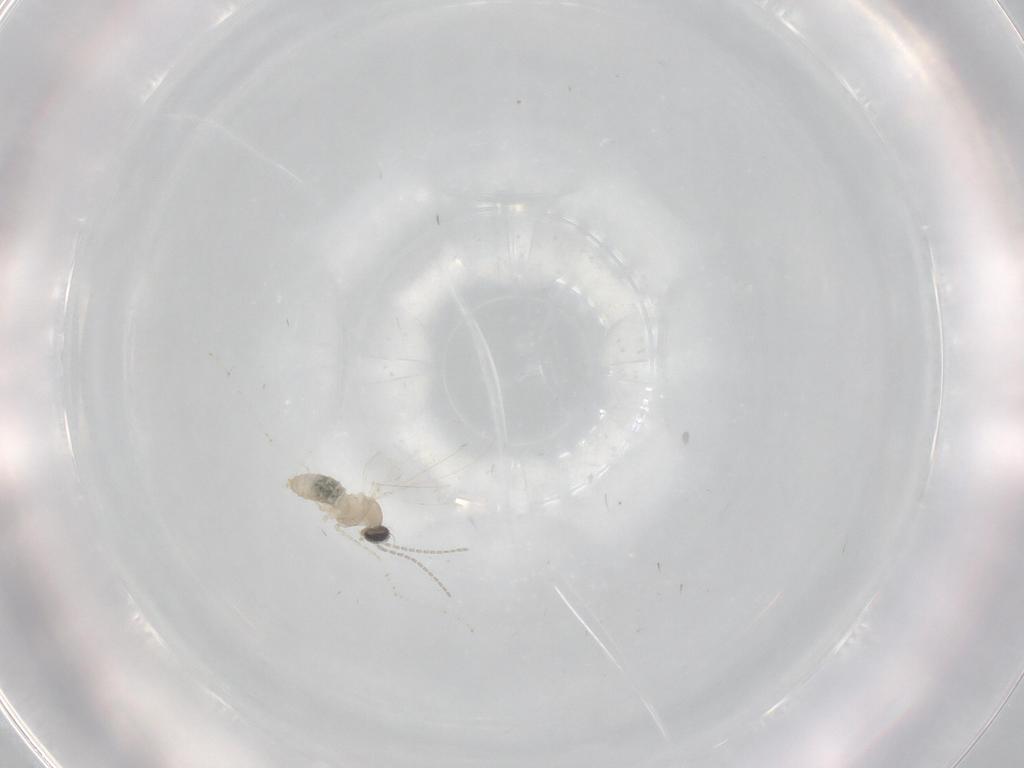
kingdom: Animalia
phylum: Arthropoda
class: Insecta
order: Diptera
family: Cecidomyiidae
